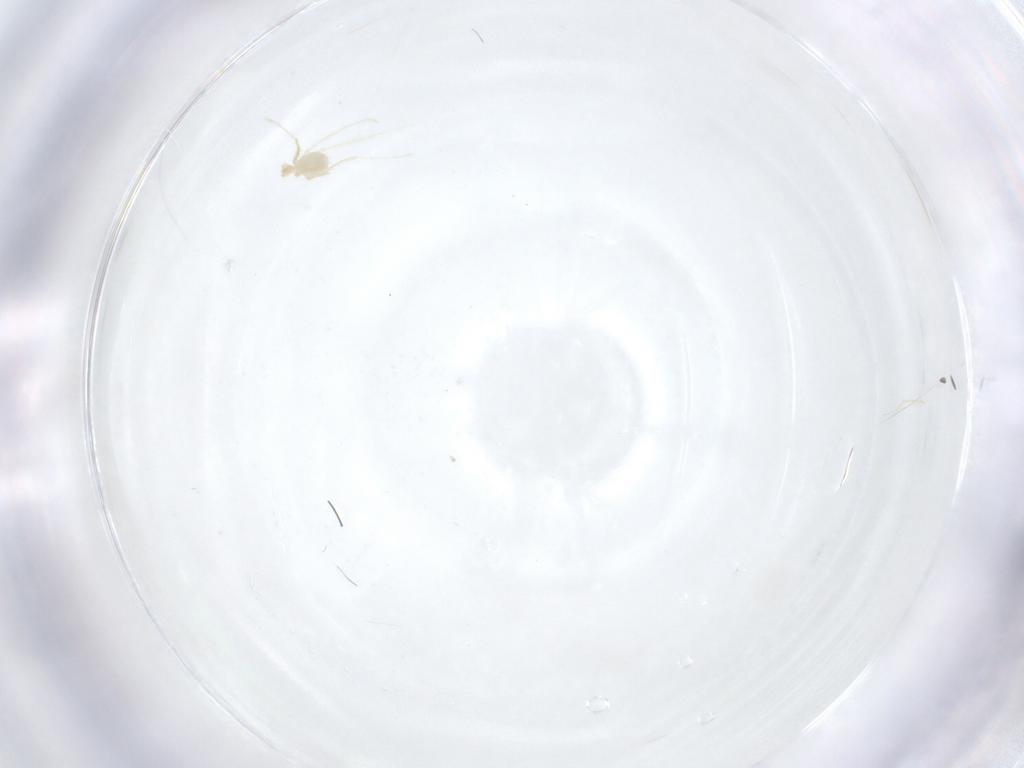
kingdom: Animalia
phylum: Arthropoda
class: Arachnida
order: Trombidiformes
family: Erythraeidae
